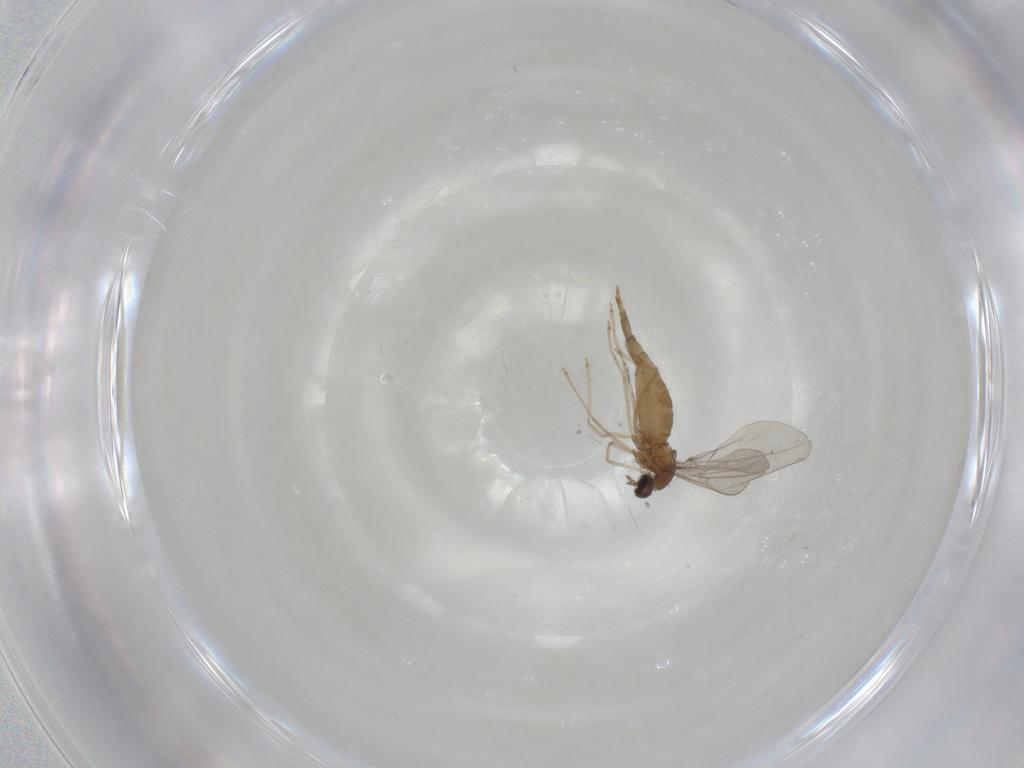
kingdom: Animalia
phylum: Arthropoda
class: Insecta
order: Diptera
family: Cecidomyiidae
